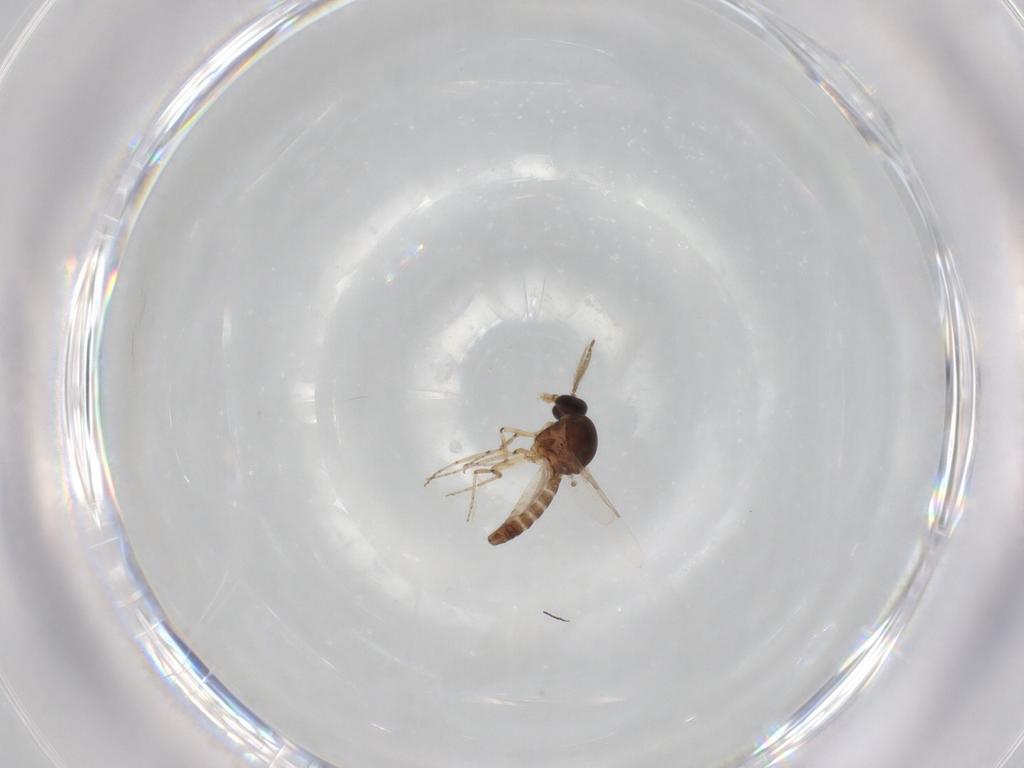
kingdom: Animalia
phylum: Arthropoda
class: Insecta
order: Diptera
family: Ceratopogonidae
